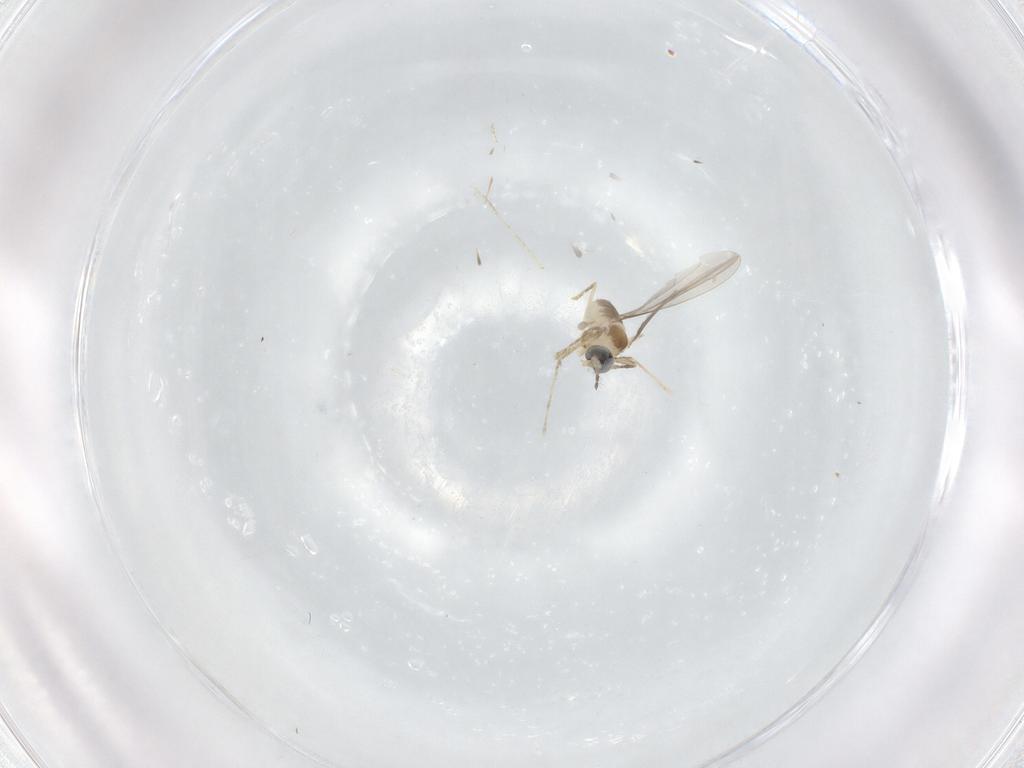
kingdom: Animalia
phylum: Arthropoda
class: Insecta
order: Diptera
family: Cecidomyiidae
